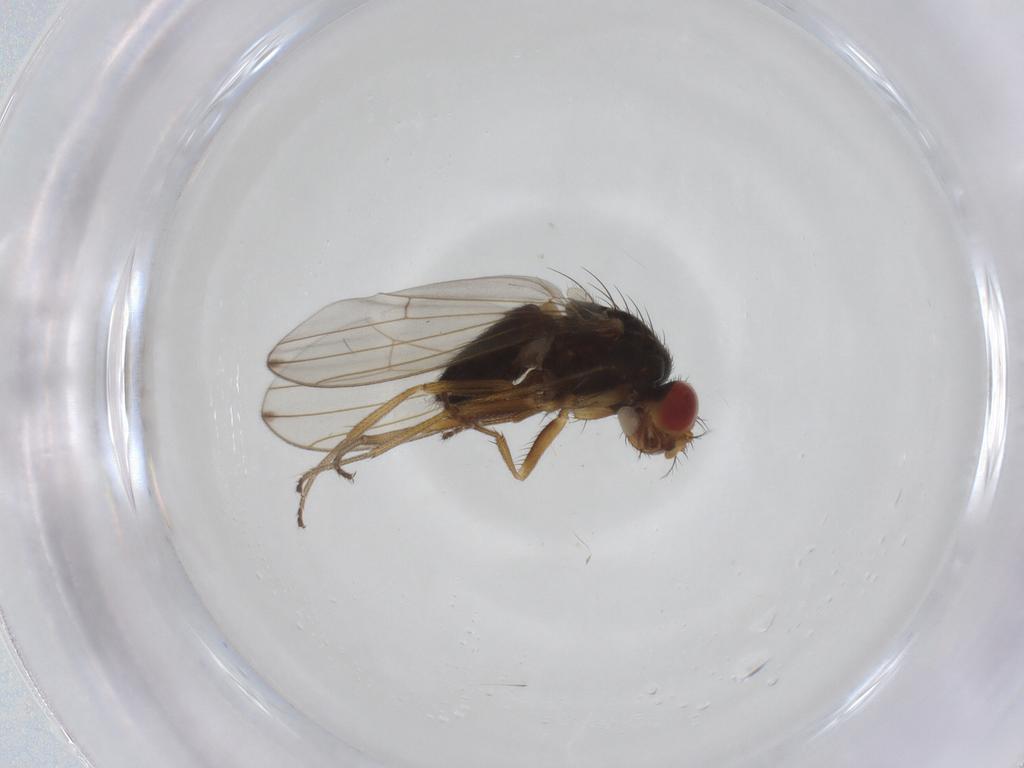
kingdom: Animalia
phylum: Arthropoda
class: Insecta
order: Diptera
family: Drosophilidae
